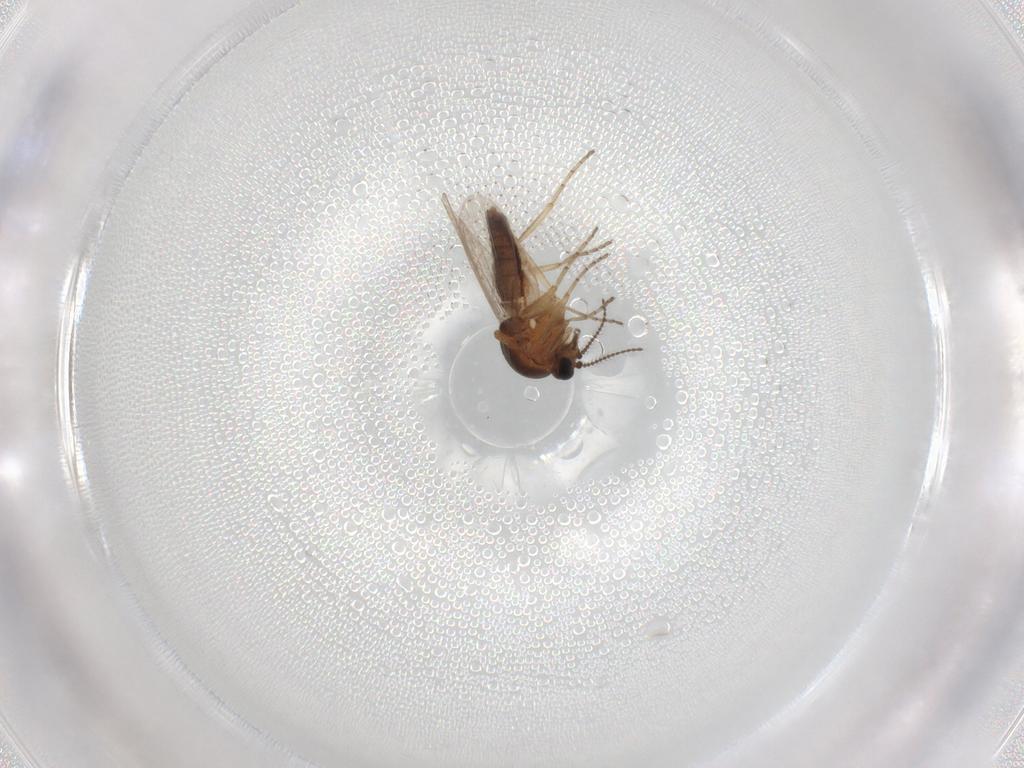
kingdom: Animalia
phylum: Arthropoda
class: Insecta
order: Diptera
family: Ceratopogonidae
